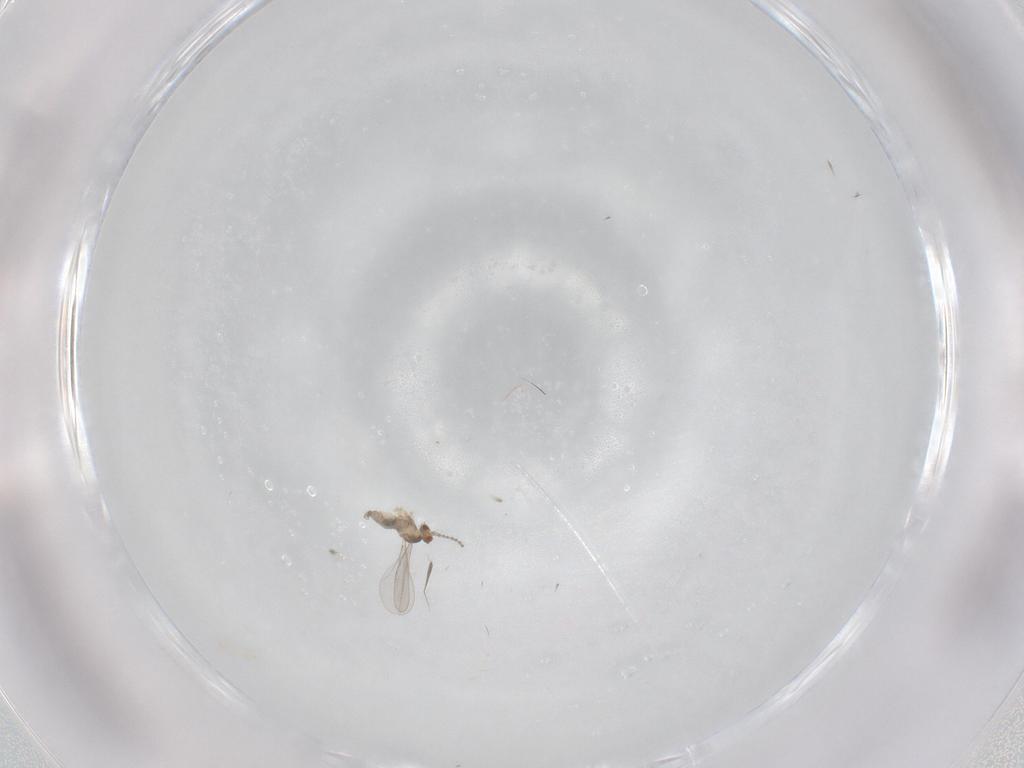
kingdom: Animalia
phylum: Arthropoda
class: Insecta
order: Diptera
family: Cecidomyiidae
